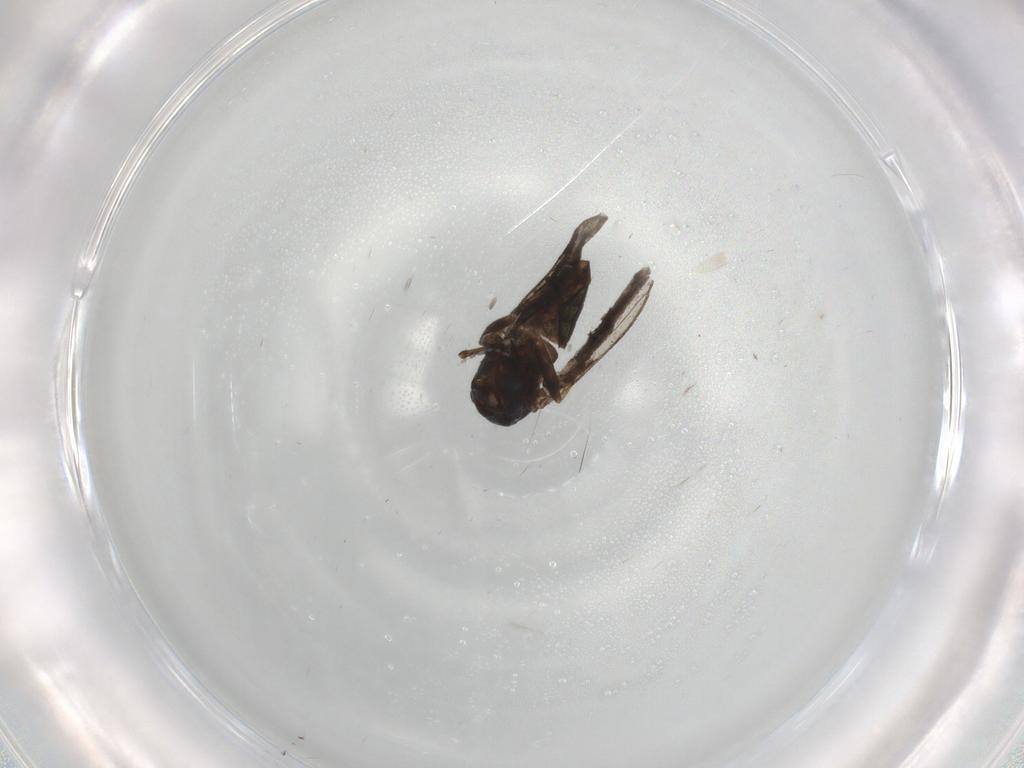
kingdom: Animalia
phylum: Arthropoda
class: Insecta
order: Diptera
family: Dolichopodidae
